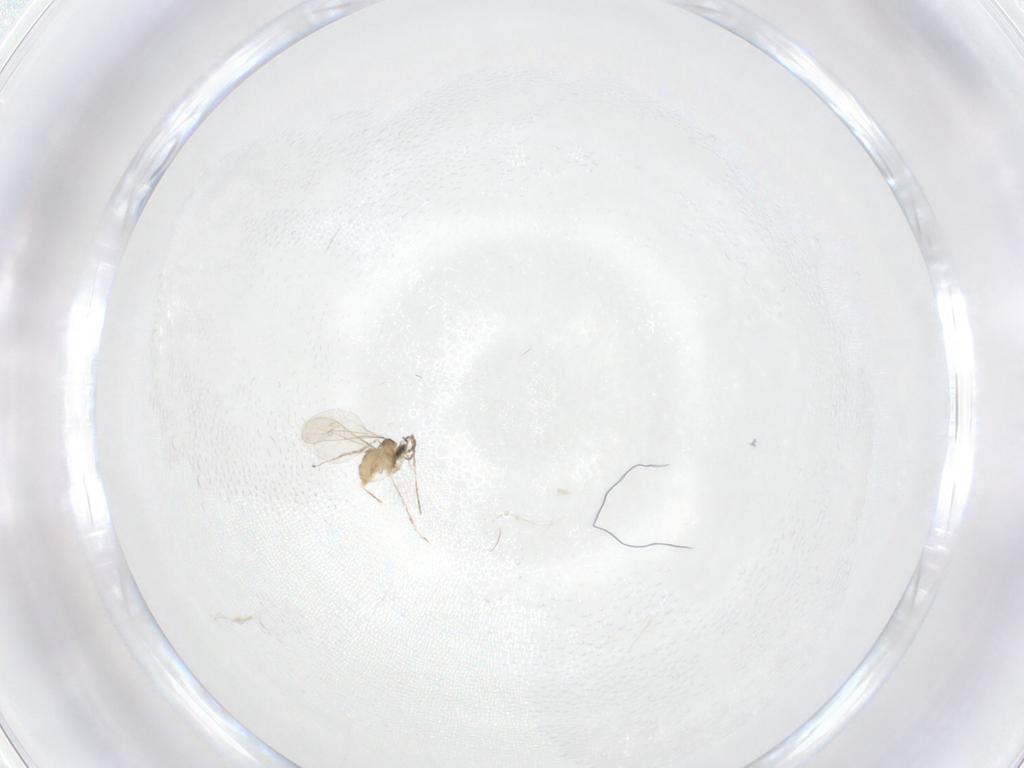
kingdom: Animalia
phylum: Arthropoda
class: Insecta
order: Diptera
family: Cecidomyiidae
